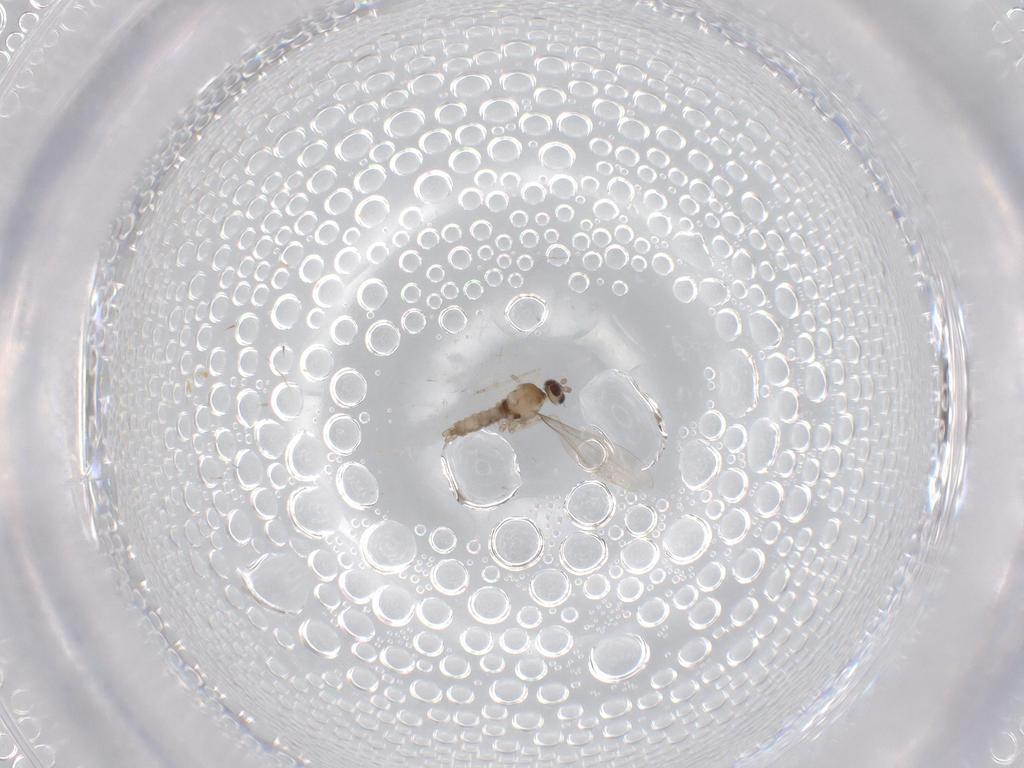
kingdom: Animalia
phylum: Arthropoda
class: Insecta
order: Diptera
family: Cecidomyiidae
